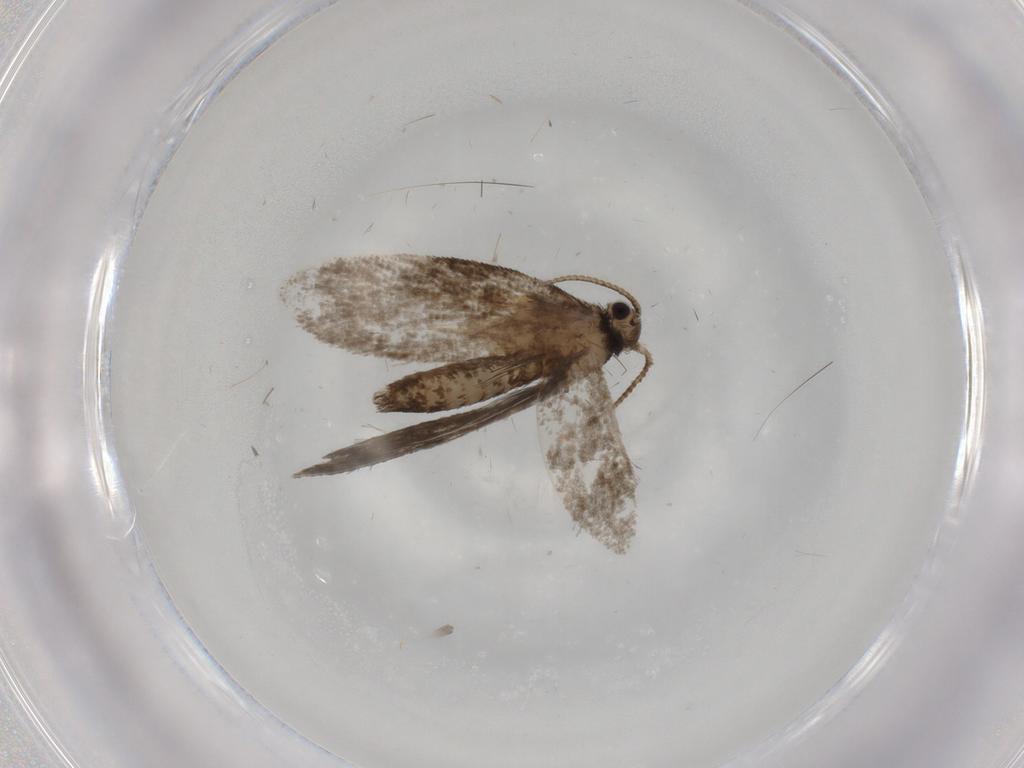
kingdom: Animalia
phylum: Arthropoda
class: Insecta
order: Lepidoptera
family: Psychidae
